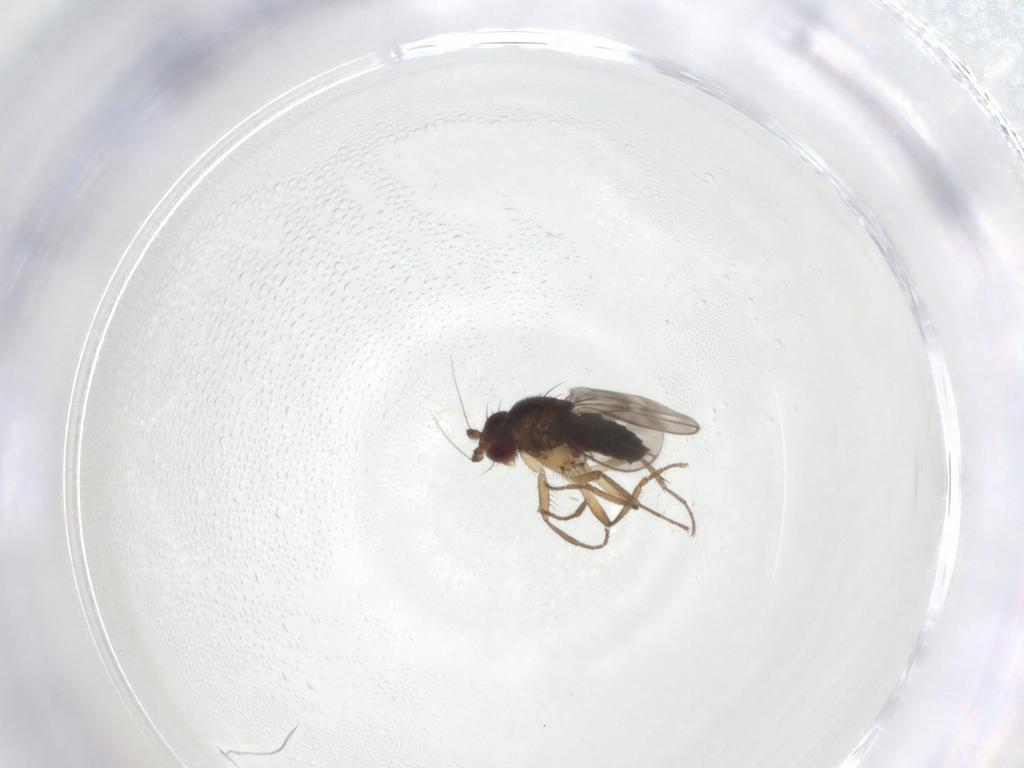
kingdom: Animalia
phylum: Arthropoda
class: Insecta
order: Diptera
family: Sphaeroceridae
